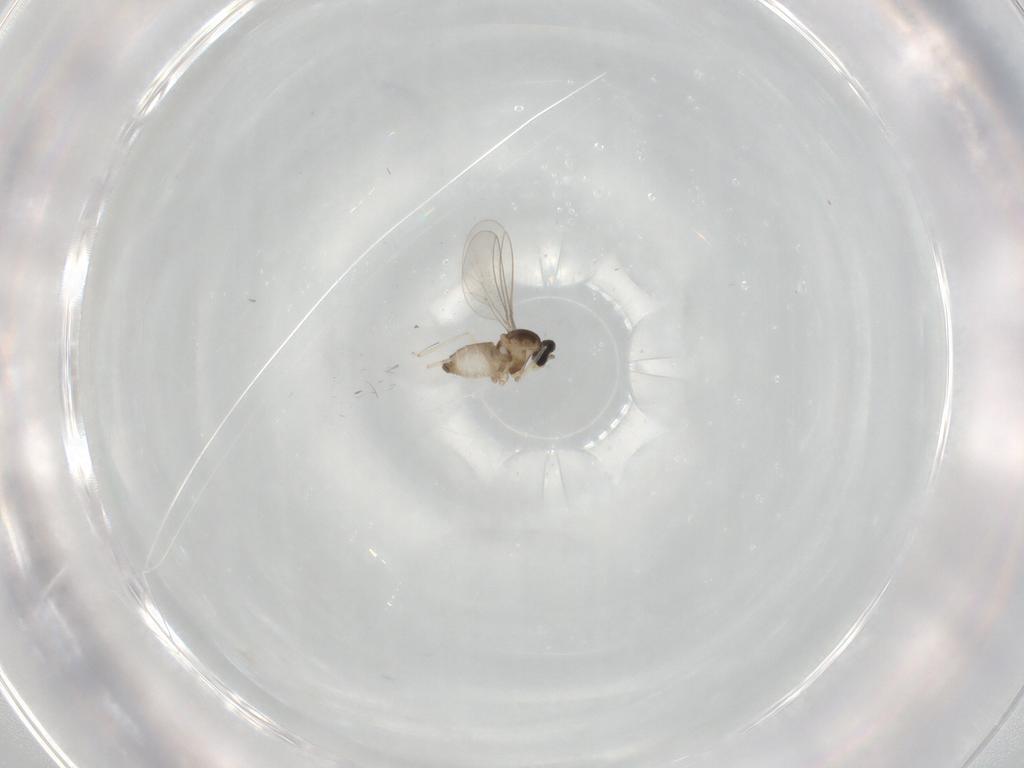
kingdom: Animalia
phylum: Arthropoda
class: Insecta
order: Diptera
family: Cecidomyiidae
